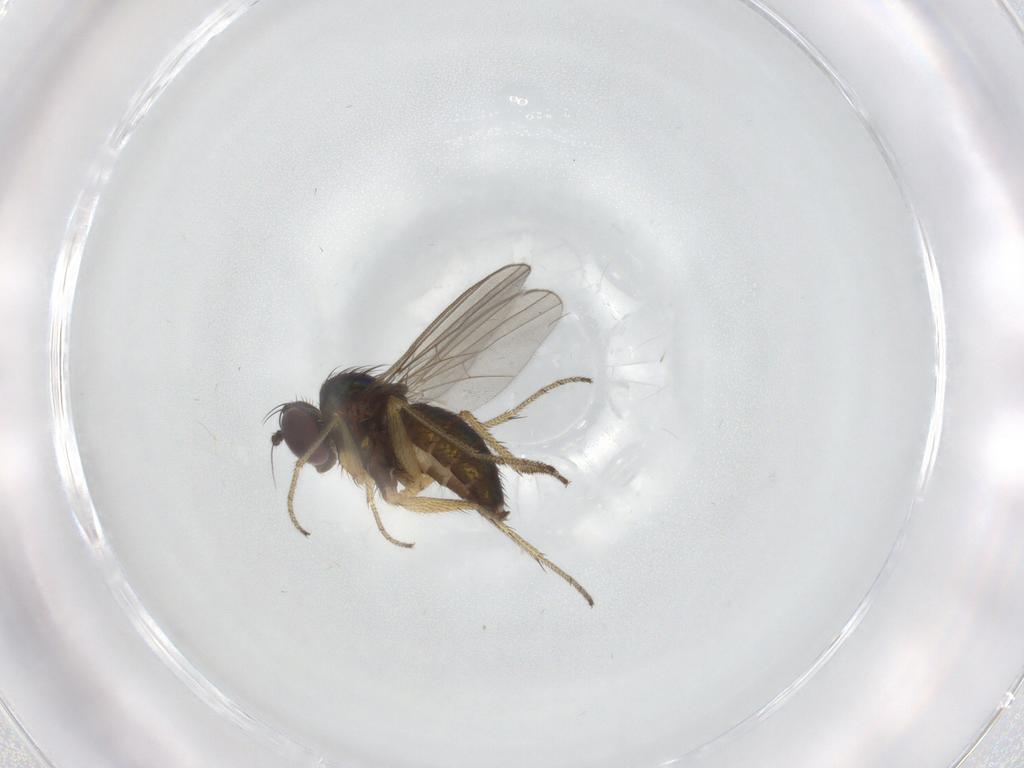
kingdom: Animalia
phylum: Arthropoda
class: Insecta
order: Diptera
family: Dolichopodidae
